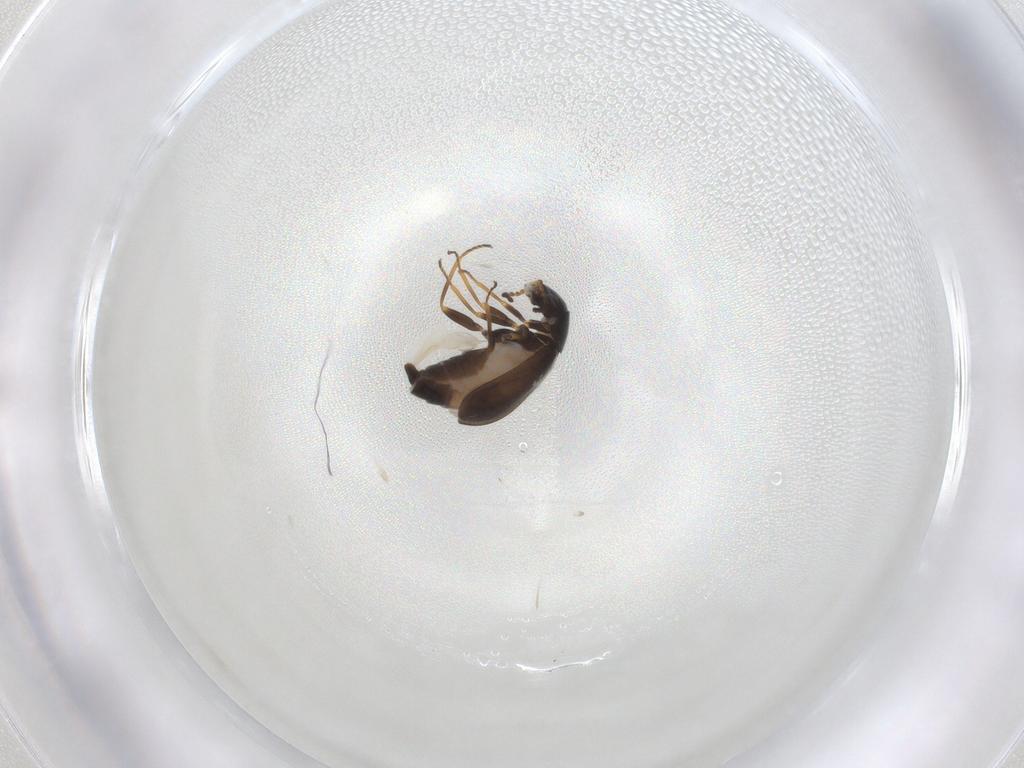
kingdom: Animalia
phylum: Arthropoda
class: Insecta
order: Coleoptera
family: Melyridae
